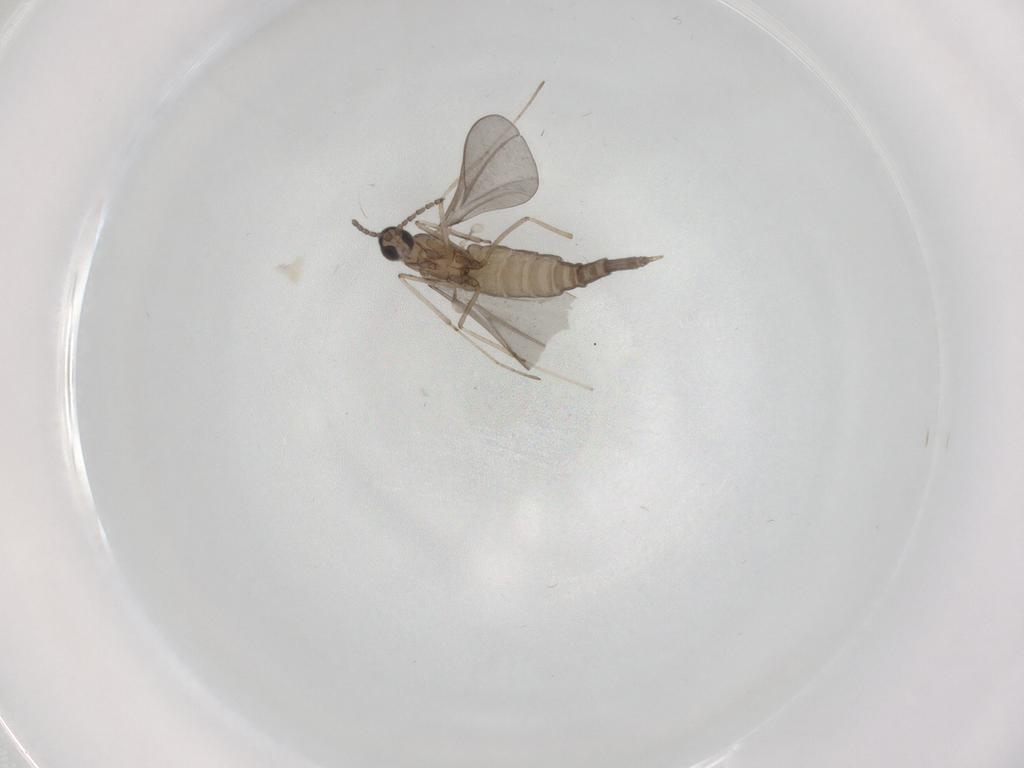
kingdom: Animalia
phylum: Arthropoda
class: Insecta
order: Diptera
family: Cecidomyiidae
